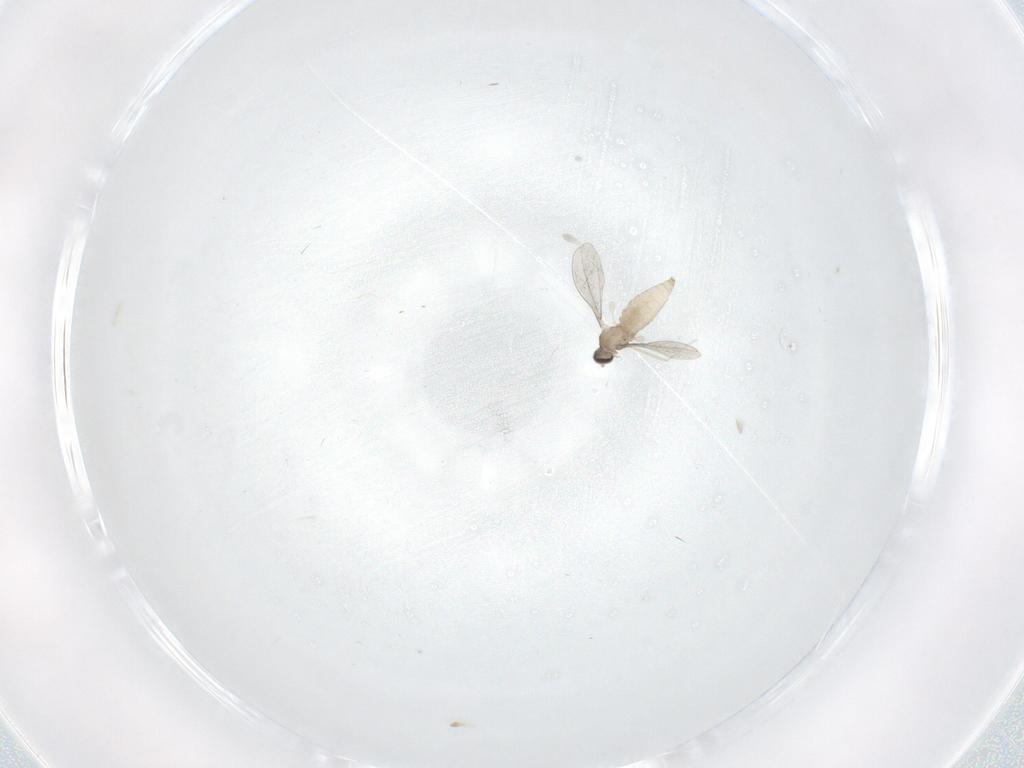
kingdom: Animalia
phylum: Arthropoda
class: Insecta
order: Diptera
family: Cecidomyiidae
